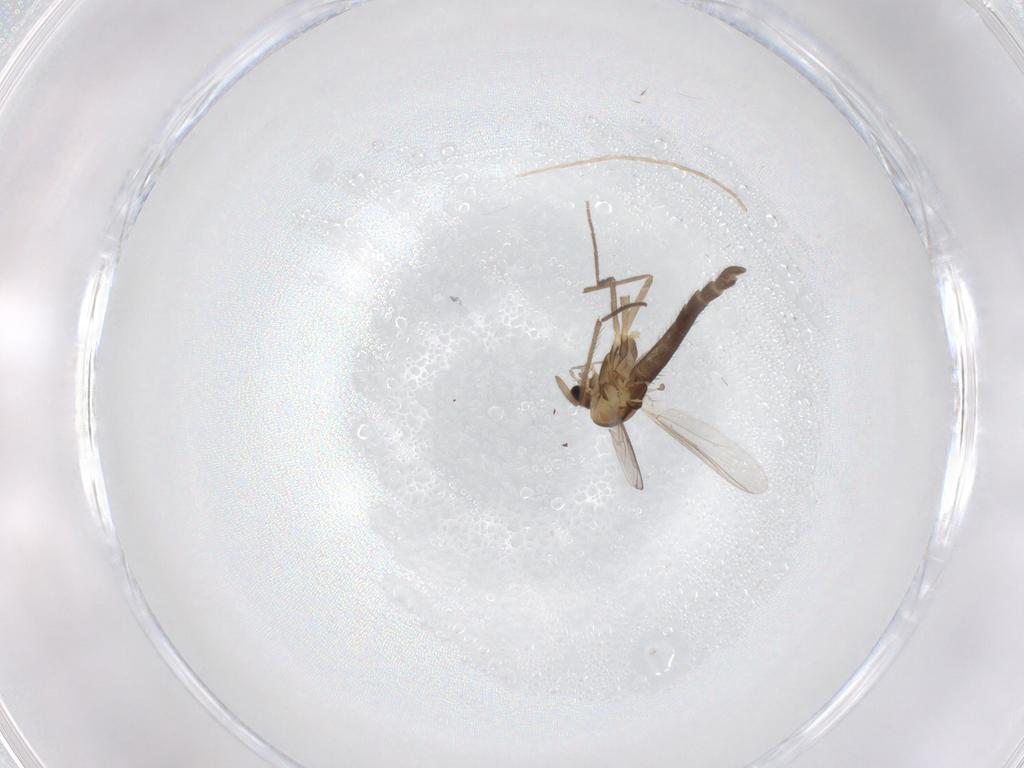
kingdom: Animalia
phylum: Arthropoda
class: Insecta
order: Diptera
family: Chironomidae
